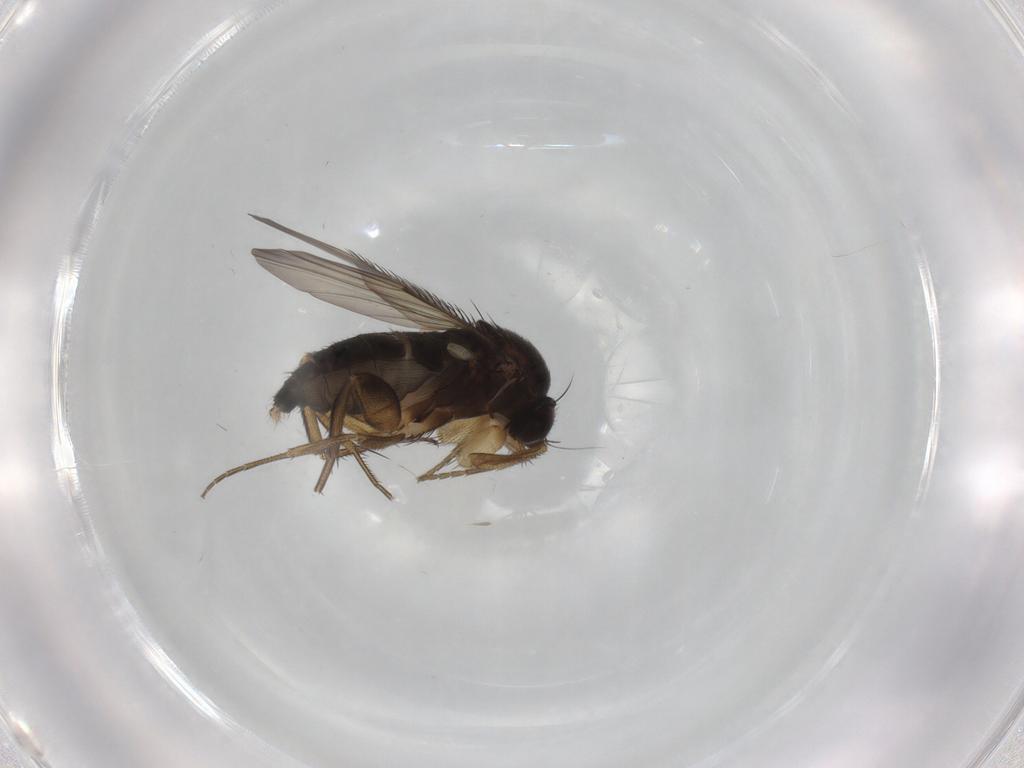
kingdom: Animalia
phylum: Arthropoda
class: Insecta
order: Diptera
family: Phoridae
